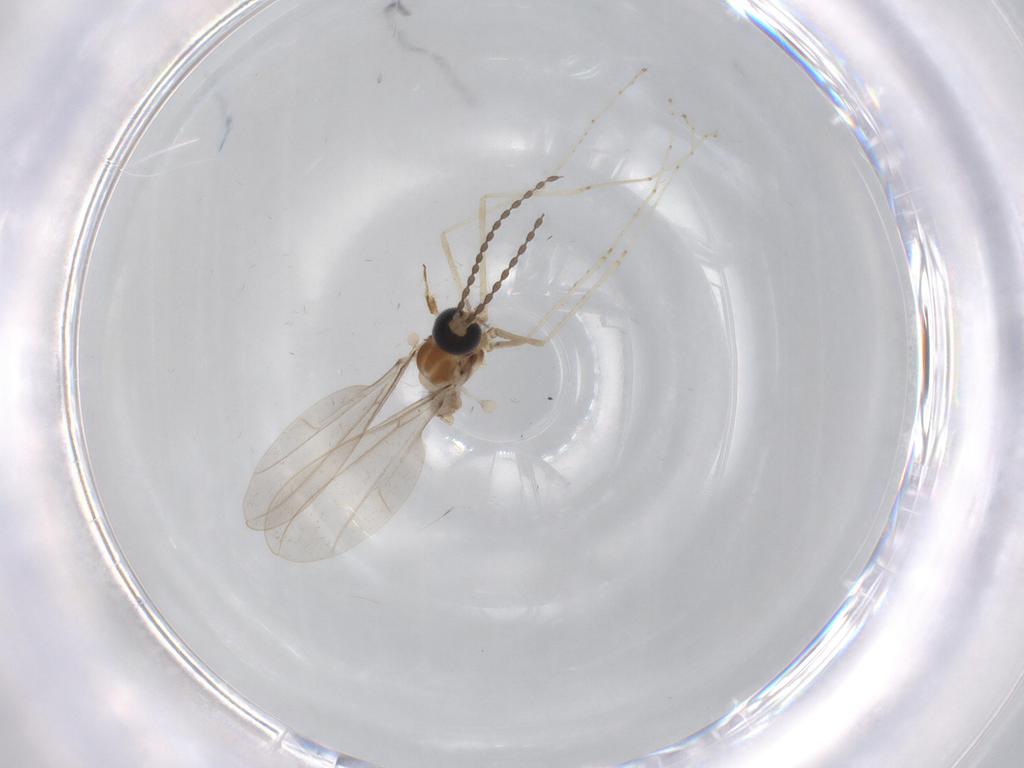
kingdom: Animalia
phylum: Arthropoda
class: Insecta
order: Diptera
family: Cecidomyiidae
